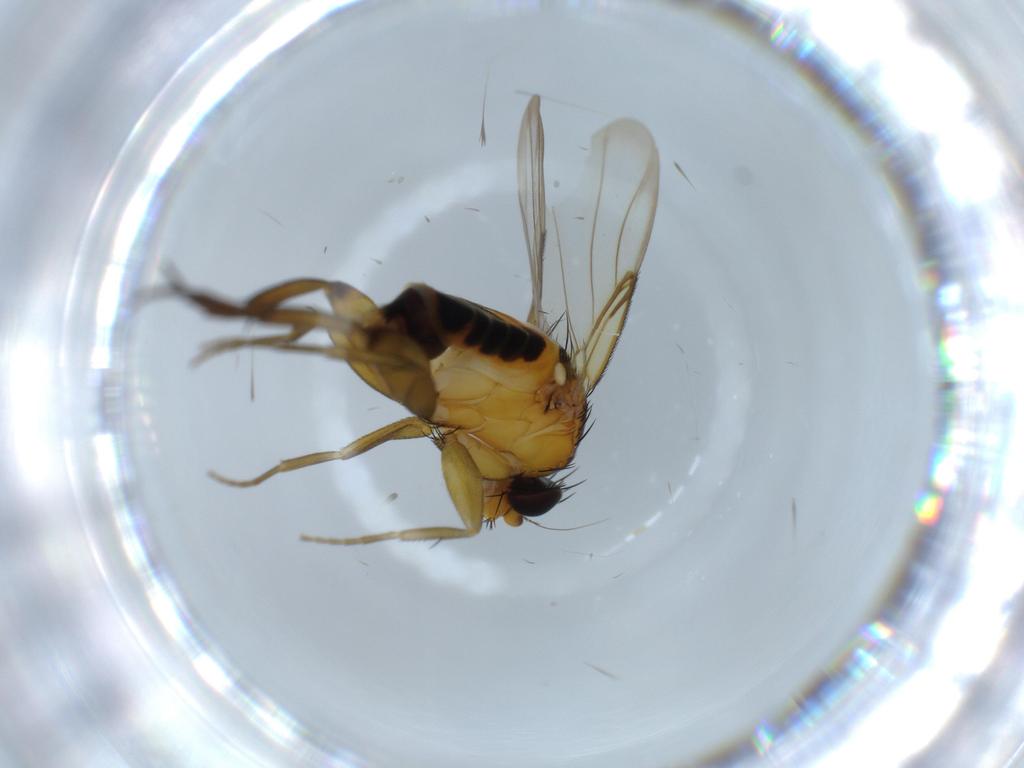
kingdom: Animalia
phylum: Arthropoda
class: Insecta
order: Diptera
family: Phoridae
